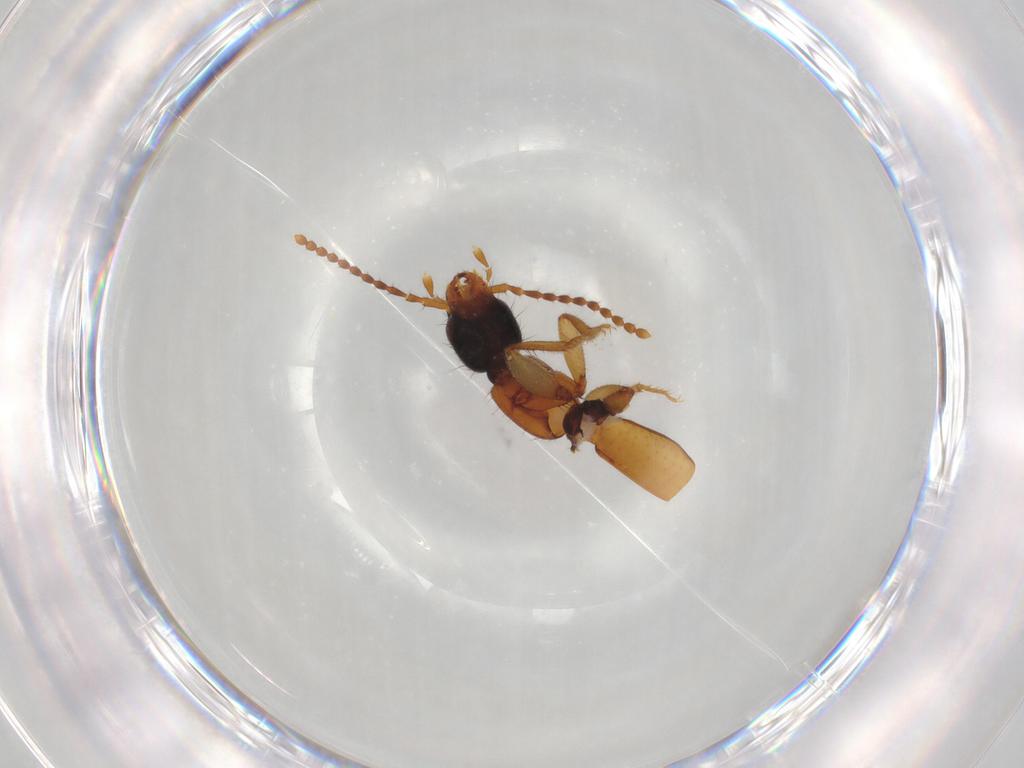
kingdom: Animalia
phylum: Arthropoda
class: Insecta
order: Coleoptera
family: Staphylinidae
